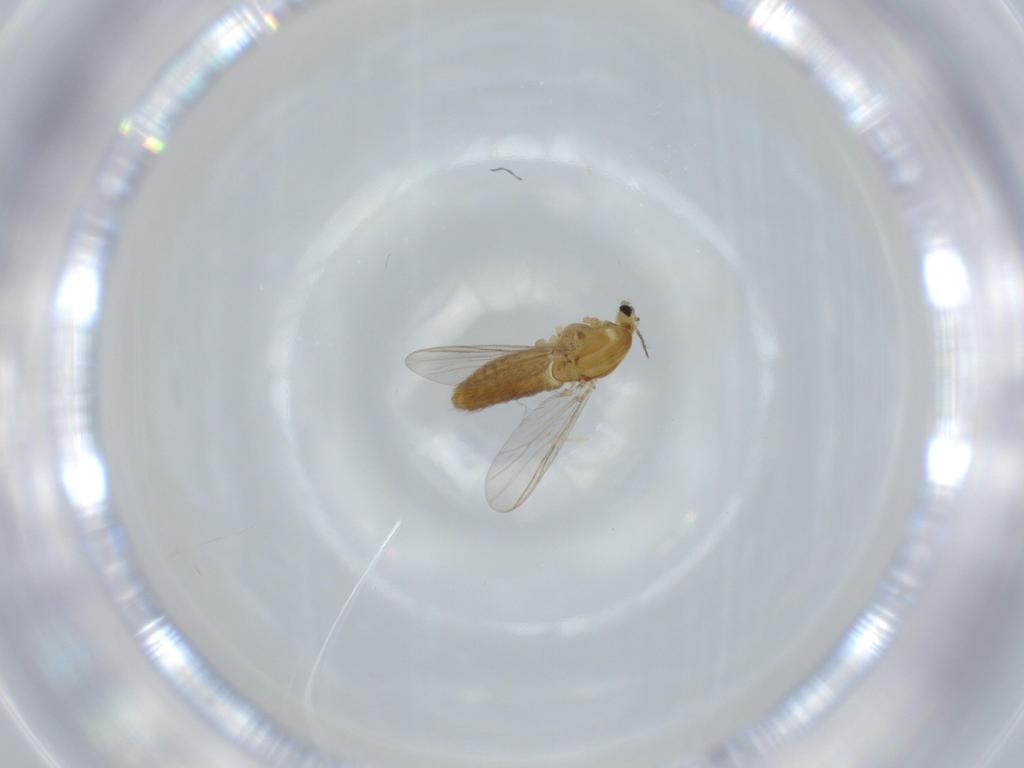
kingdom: Animalia
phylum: Arthropoda
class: Insecta
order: Diptera
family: Chironomidae
